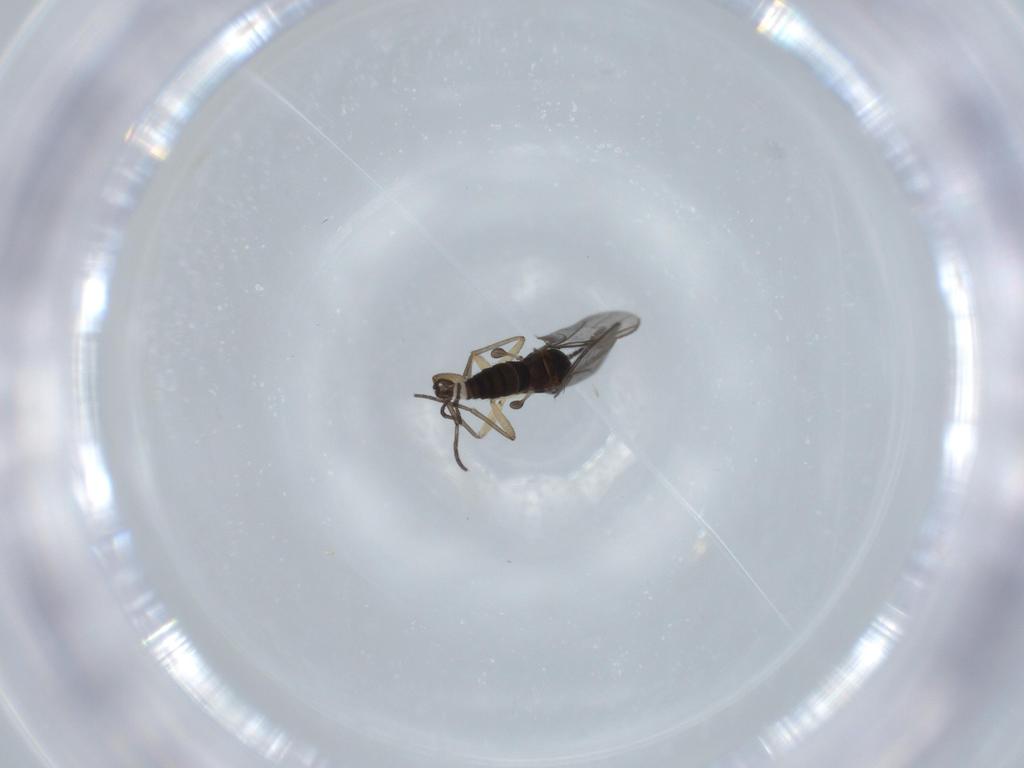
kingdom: Animalia
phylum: Arthropoda
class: Insecta
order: Diptera
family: Sciaridae
